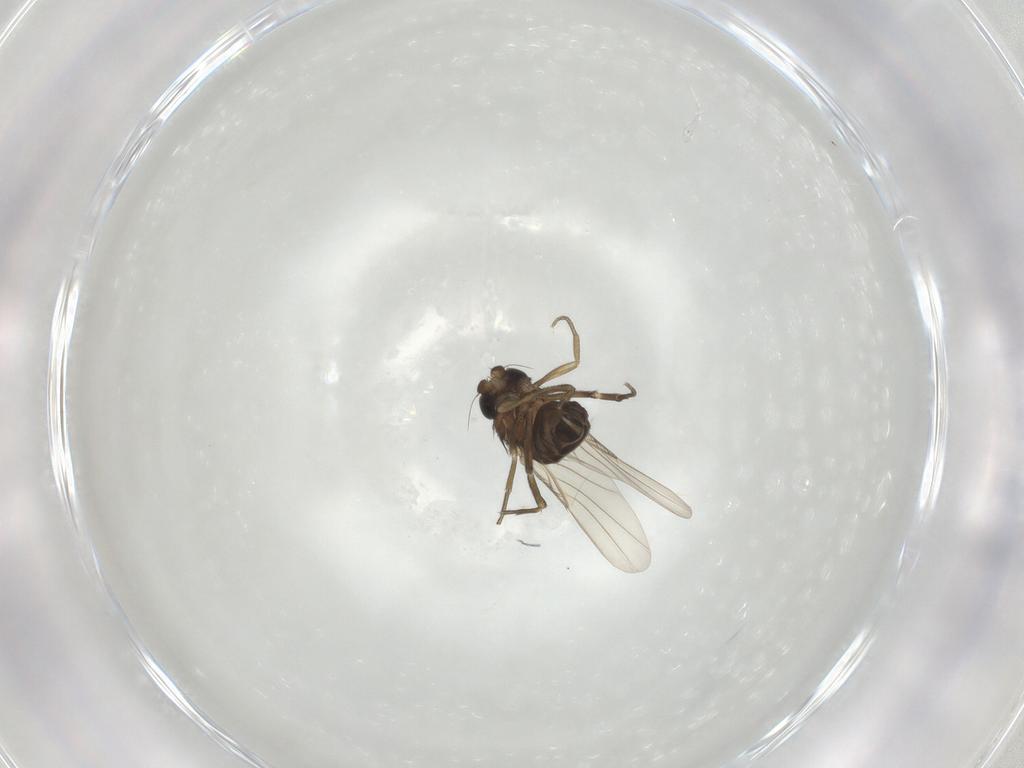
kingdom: Animalia
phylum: Arthropoda
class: Insecta
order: Diptera
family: Phoridae
